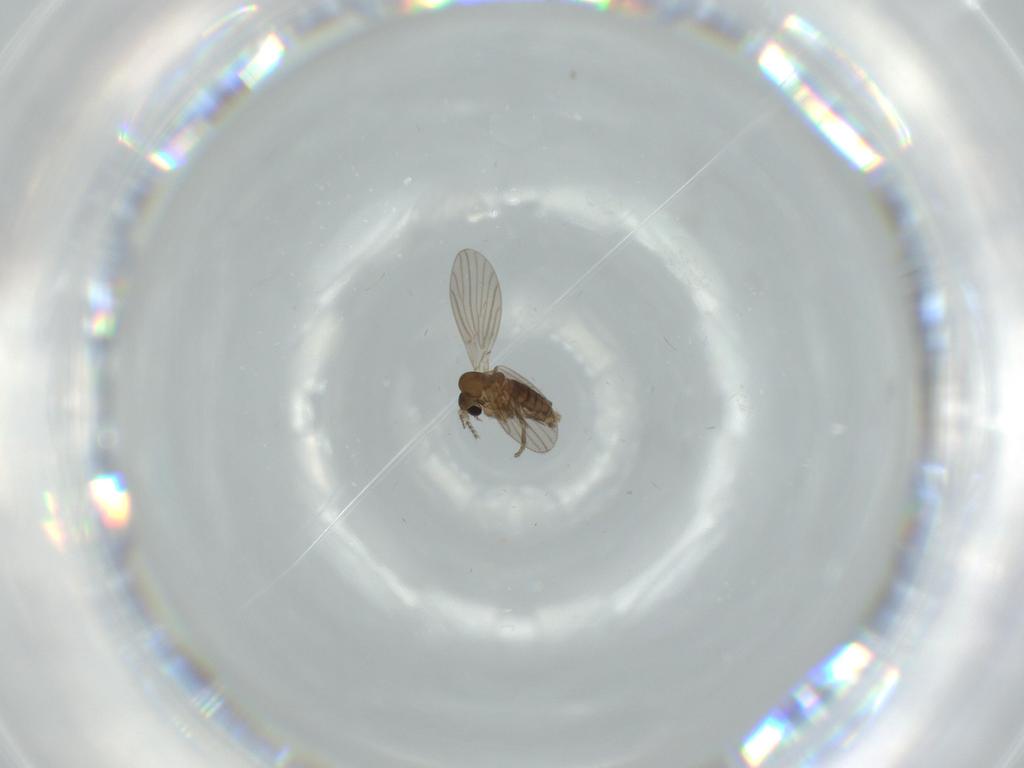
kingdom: Animalia
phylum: Arthropoda
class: Insecta
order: Diptera
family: Psychodidae
